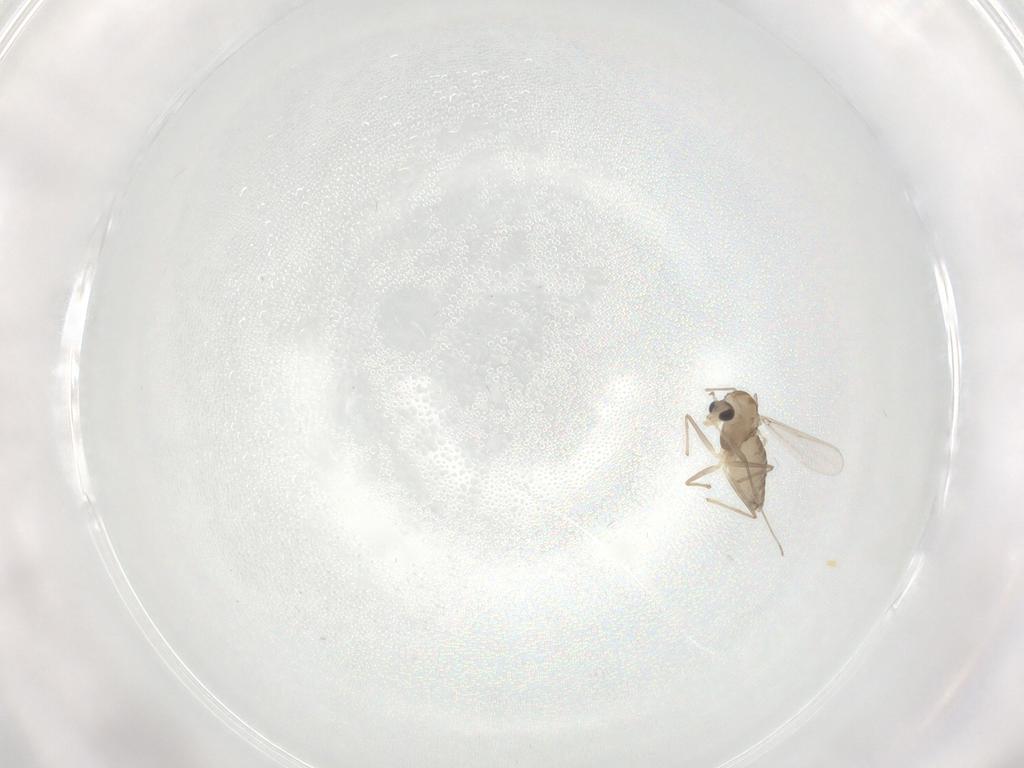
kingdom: Animalia
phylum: Arthropoda
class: Insecta
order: Diptera
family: Chironomidae
